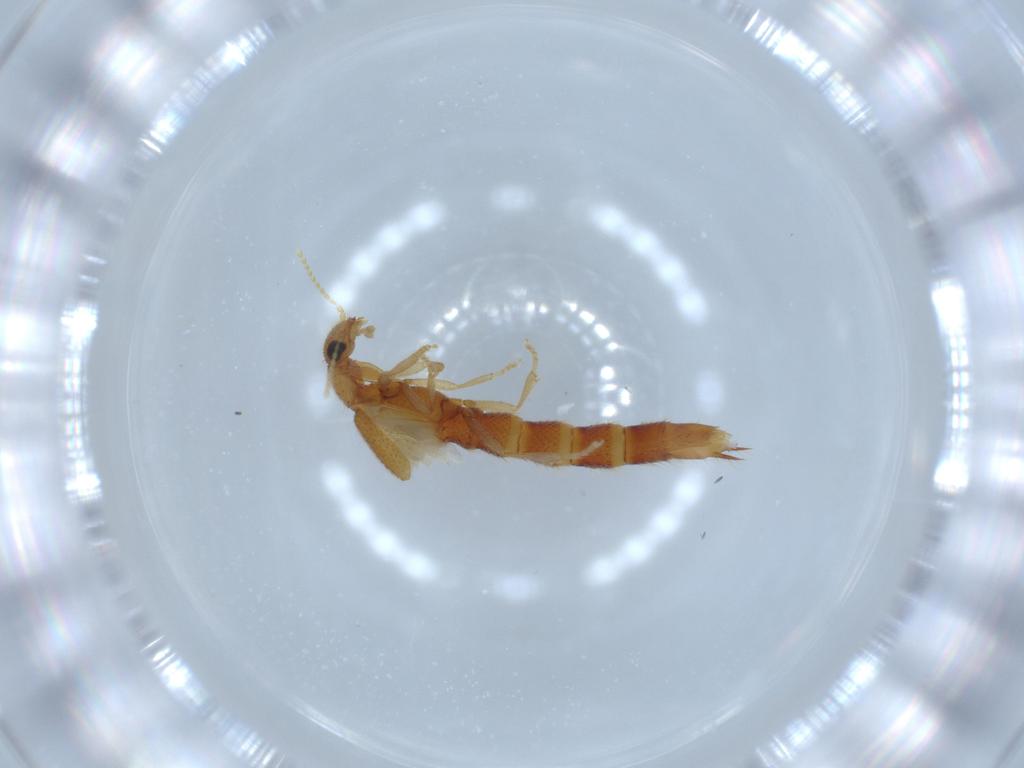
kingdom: Animalia
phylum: Arthropoda
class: Insecta
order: Coleoptera
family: Staphylinidae
